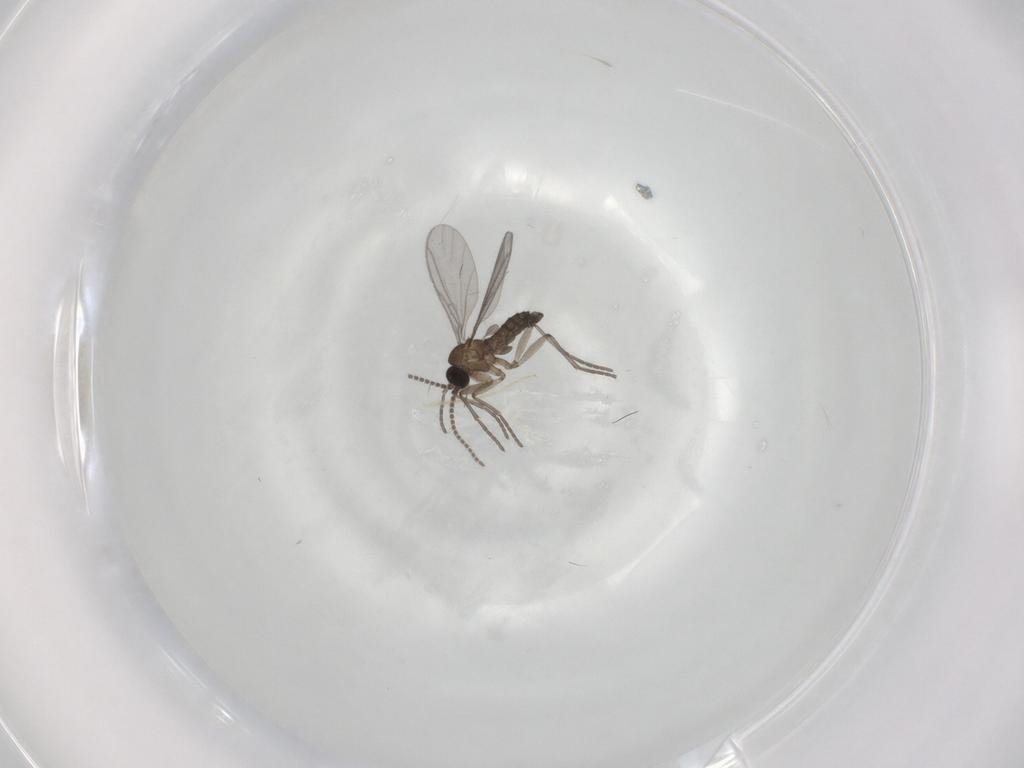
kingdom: Animalia
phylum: Arthropoda
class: Insecta
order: Diptera
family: Chironomidae
